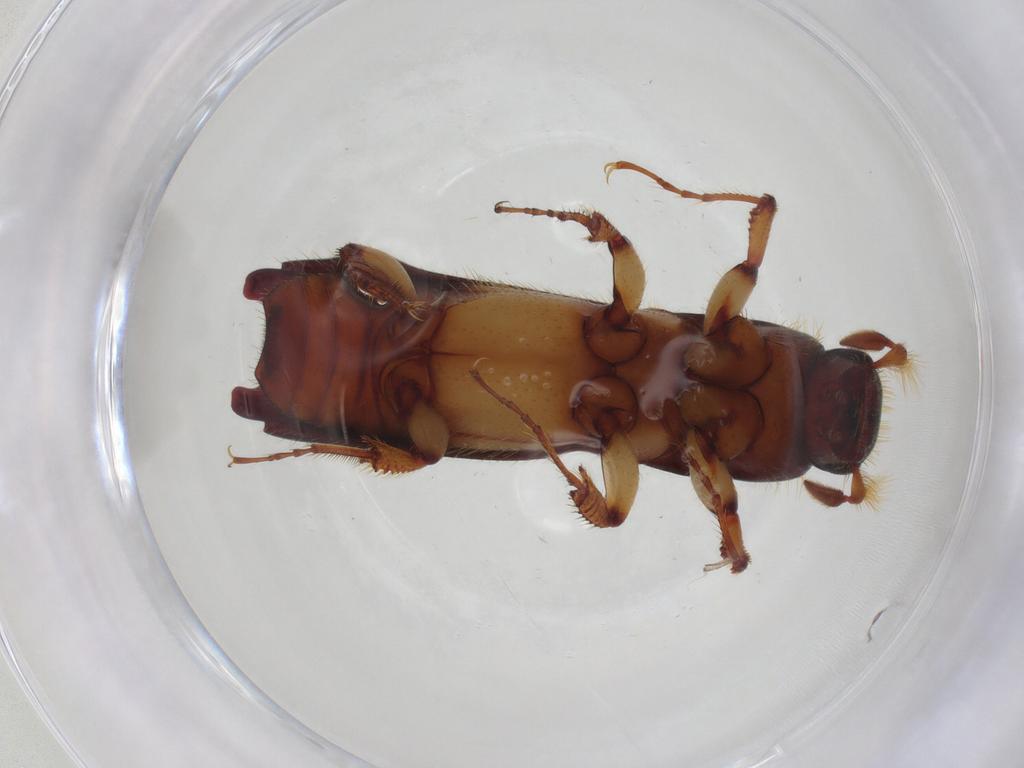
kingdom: Animalia
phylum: Arthropoda
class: Insecta
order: Coleoptera
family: Curculionidae
